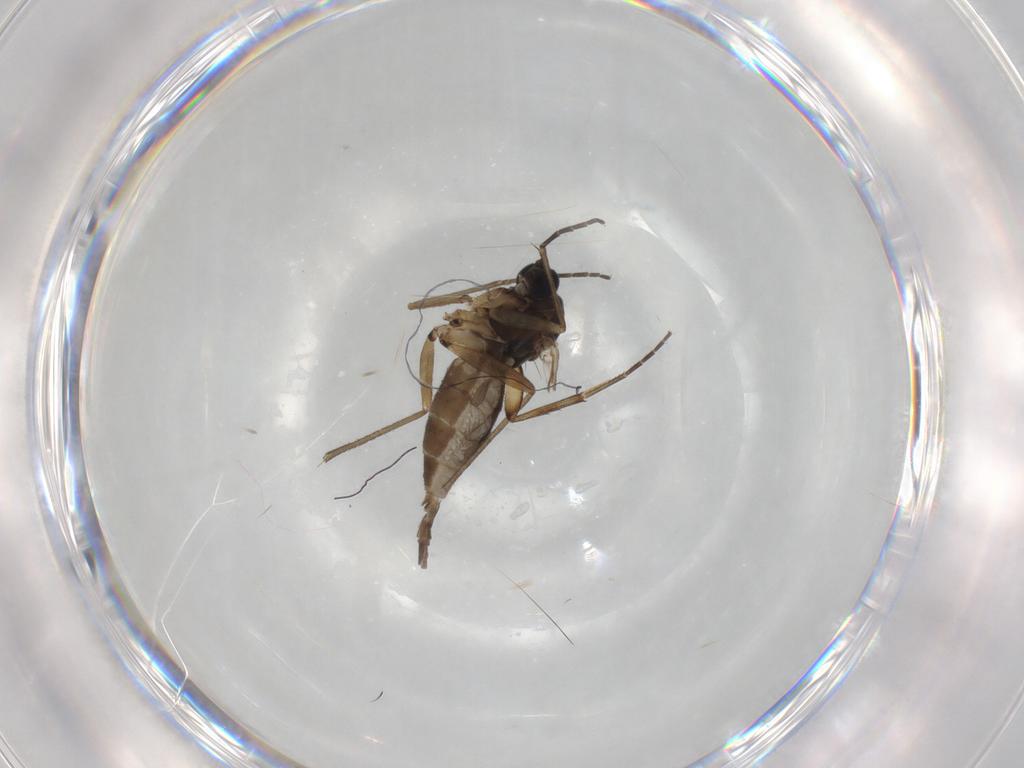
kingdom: Animalia
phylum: Arthropoda
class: Insecta
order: Diptera
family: Sciaridae
